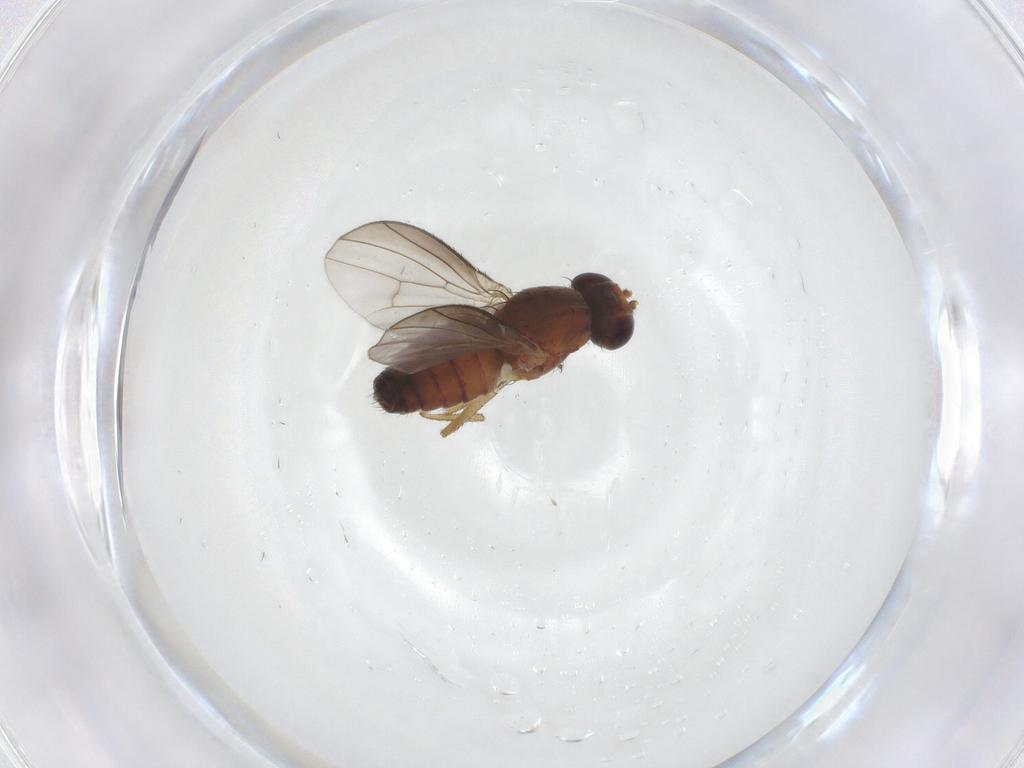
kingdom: Animalia
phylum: Arthropoda
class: Insecta
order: Diptera
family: Heleomyzidae
